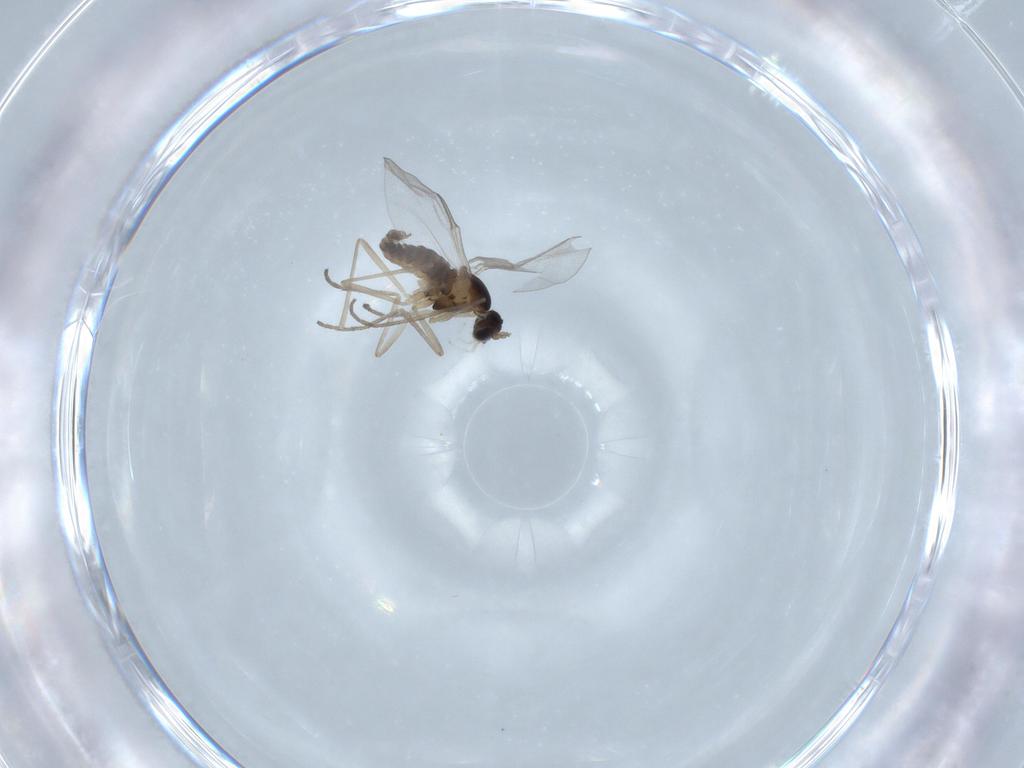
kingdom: Animalia
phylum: Arthropoda
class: Insecta
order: Diptera
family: Cecidomyiidae
